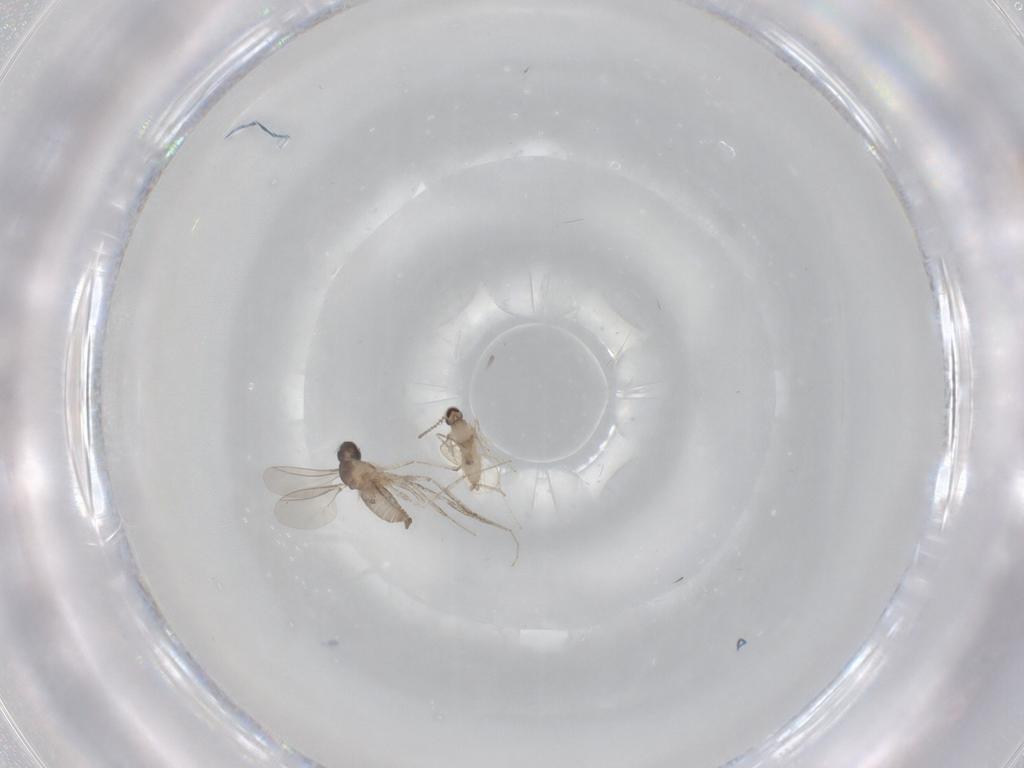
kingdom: Animalia
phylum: Arthropoda
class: Insecta
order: Diptera
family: Cecidomyiidae
